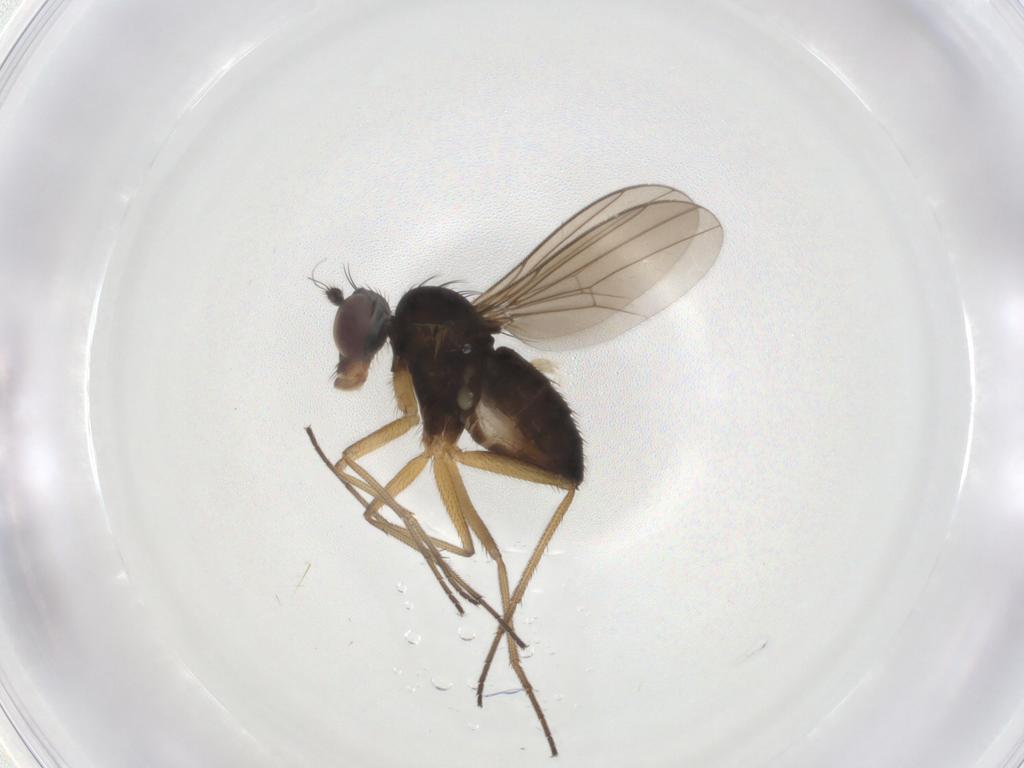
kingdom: Animalia
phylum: Arthropoda
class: Insecta
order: Diptera
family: Dolichopodidae
